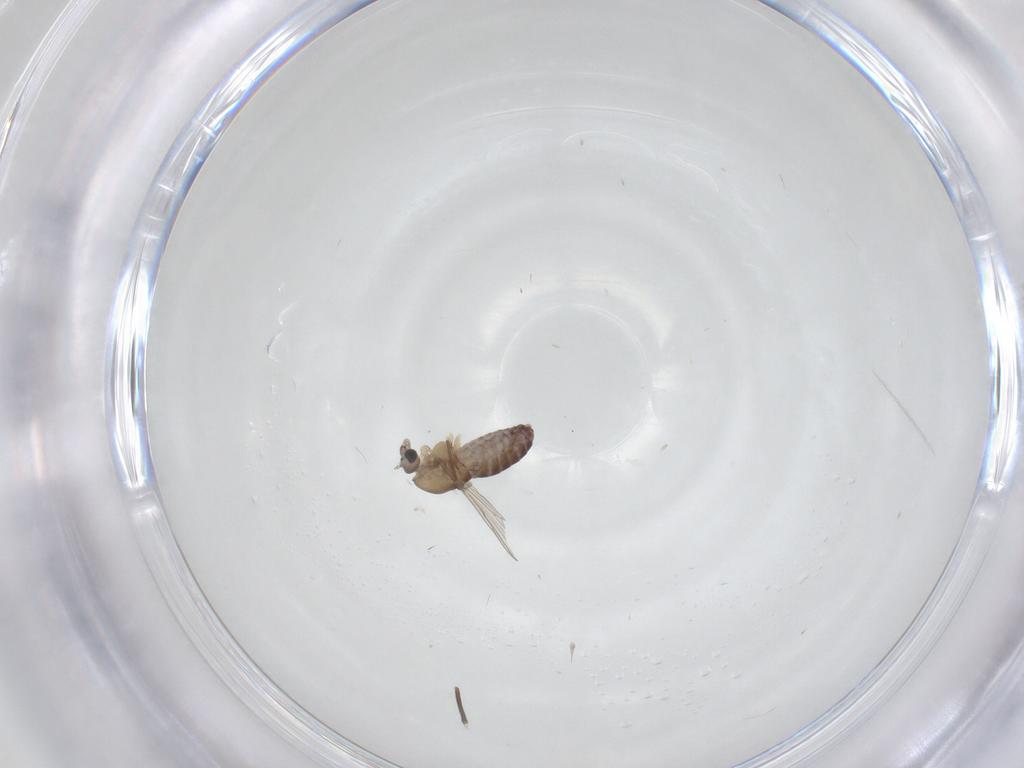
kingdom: Animalia
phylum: Arthropoda
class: Insecta
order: Diptera
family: Chironomidae
